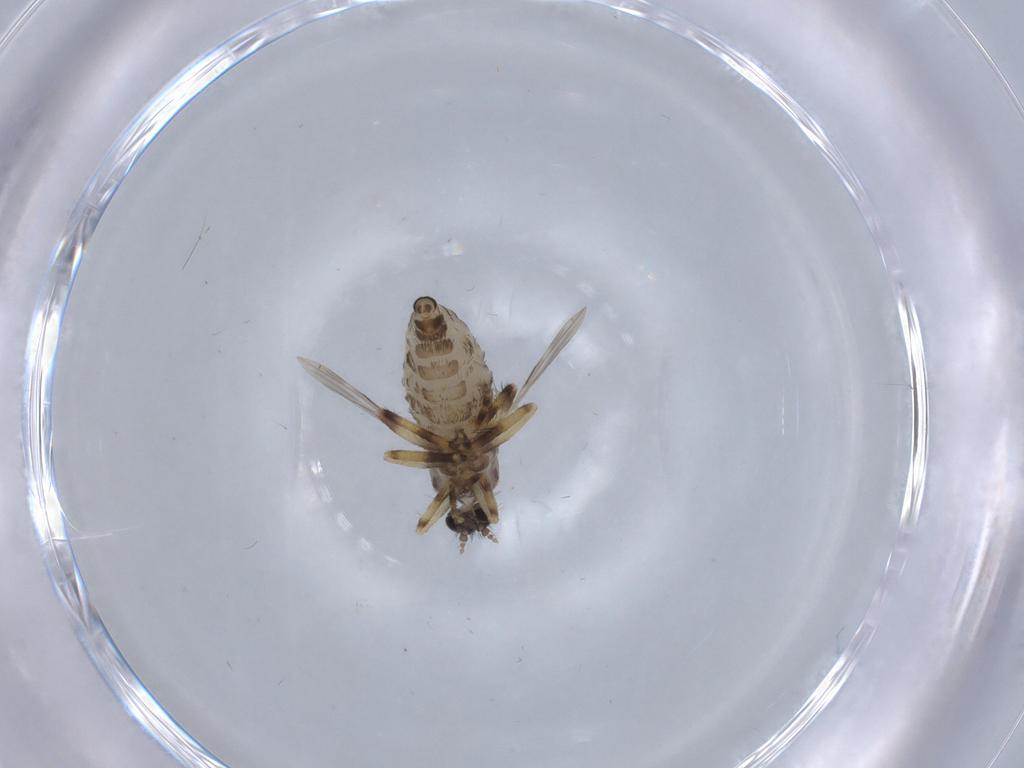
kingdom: Animalia
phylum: Arthropoda
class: Insecta
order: Diptera
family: Ceratopogonidae
